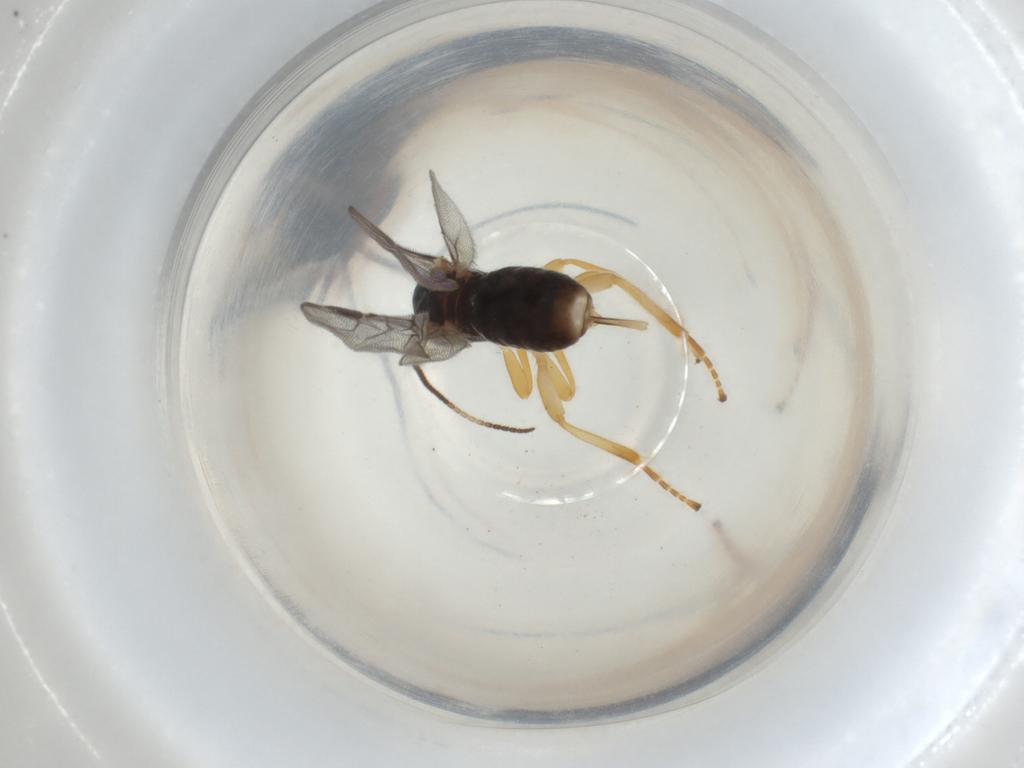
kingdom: Animalia
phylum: Arthropoda
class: Insecta
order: Hymenoptera
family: Braconidae
